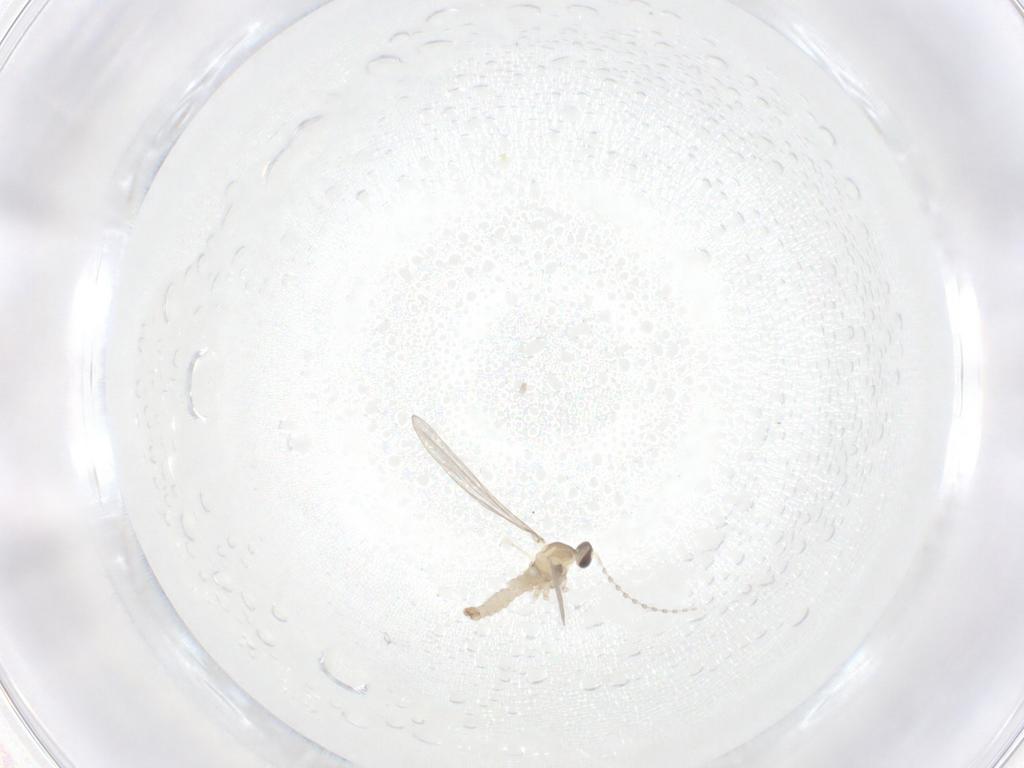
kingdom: Animalia
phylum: Arthropoda
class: Insecta
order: Diptera
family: Cecidomyiidae
